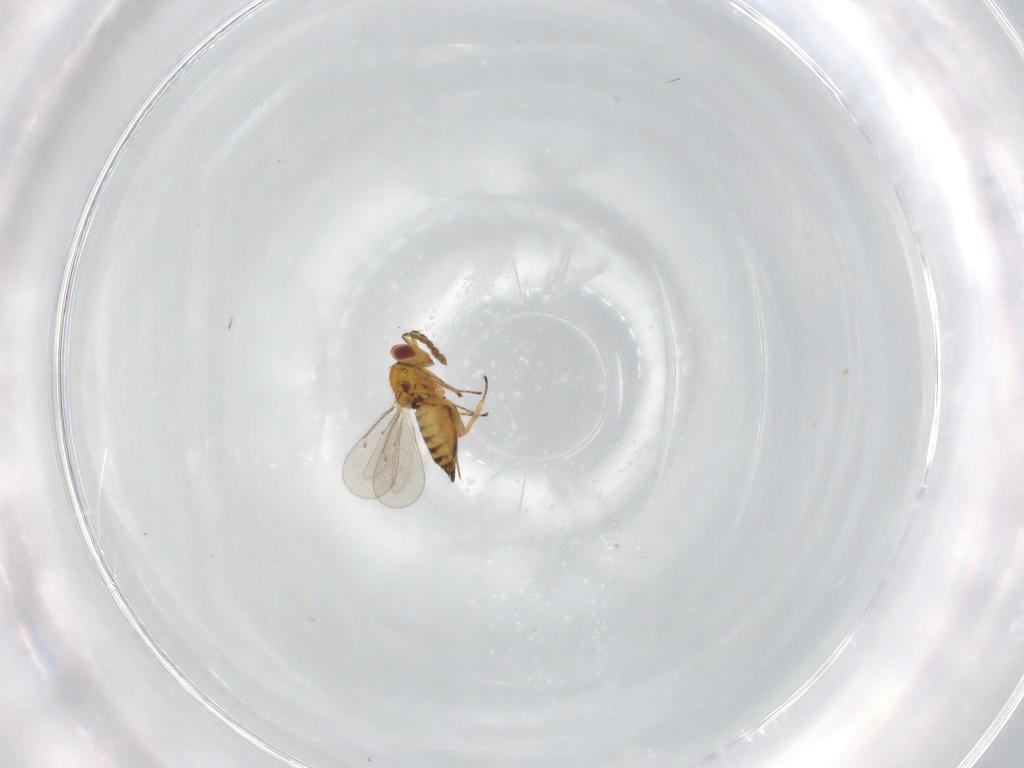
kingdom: Animalia
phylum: Arthropoda
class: Insecta
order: Hymenoptera
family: Eulophidae
